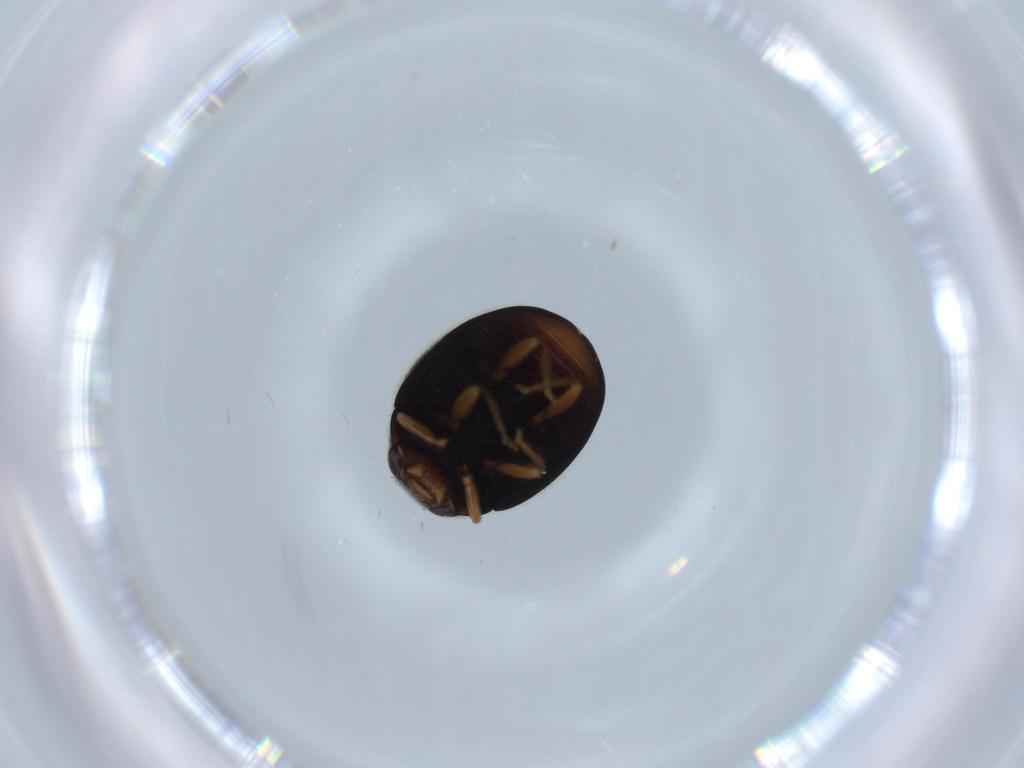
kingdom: Animalia
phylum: Arthropoda
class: Insecta
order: Coleoptera
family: Coccinellidae
